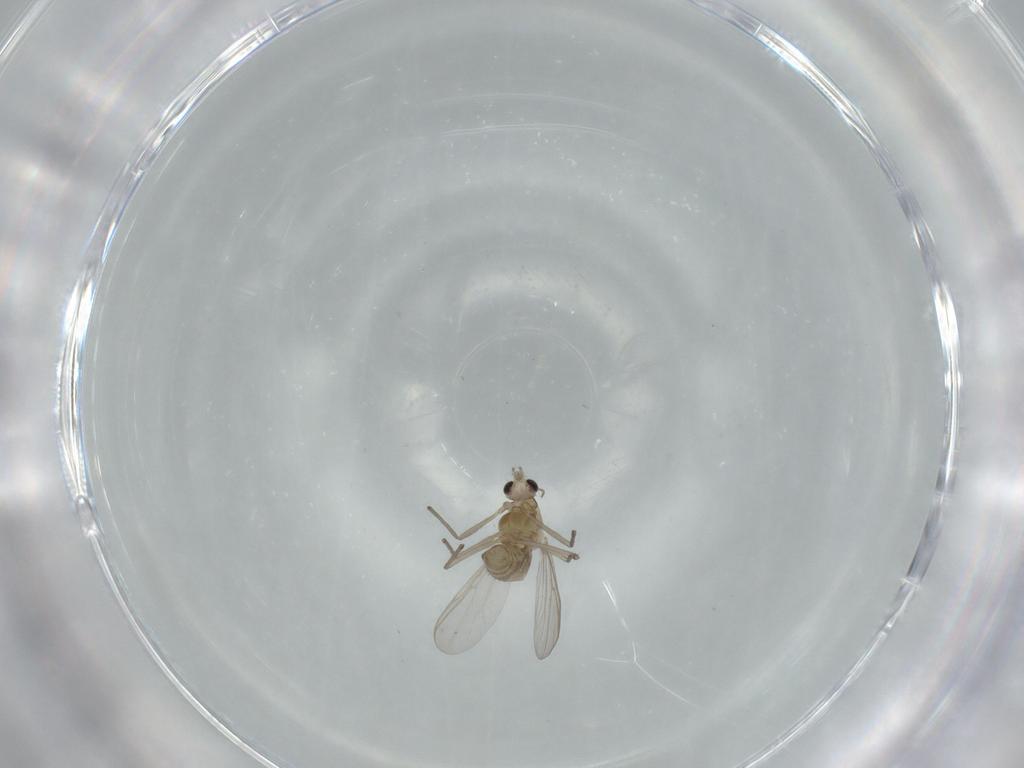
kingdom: Animalia
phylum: Arthropoda
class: Insecta
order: Diptera
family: Chironomidae
